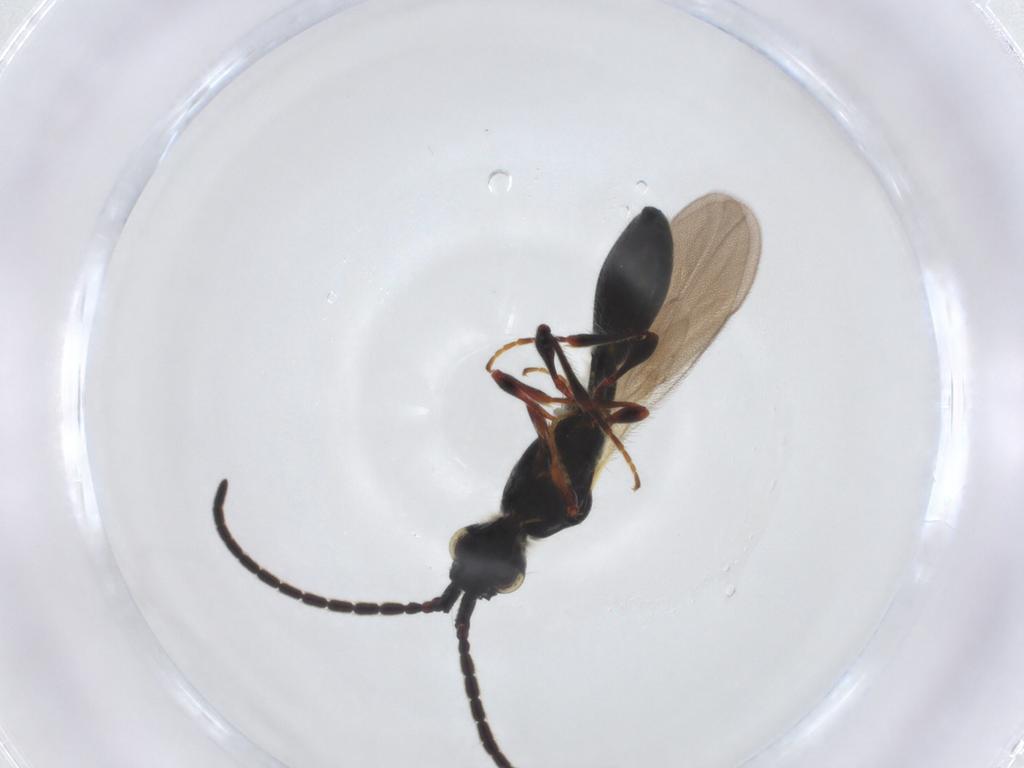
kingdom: Animalia
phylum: Arthropoda
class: Insecta
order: Hymenoptera
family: Diapriidae
